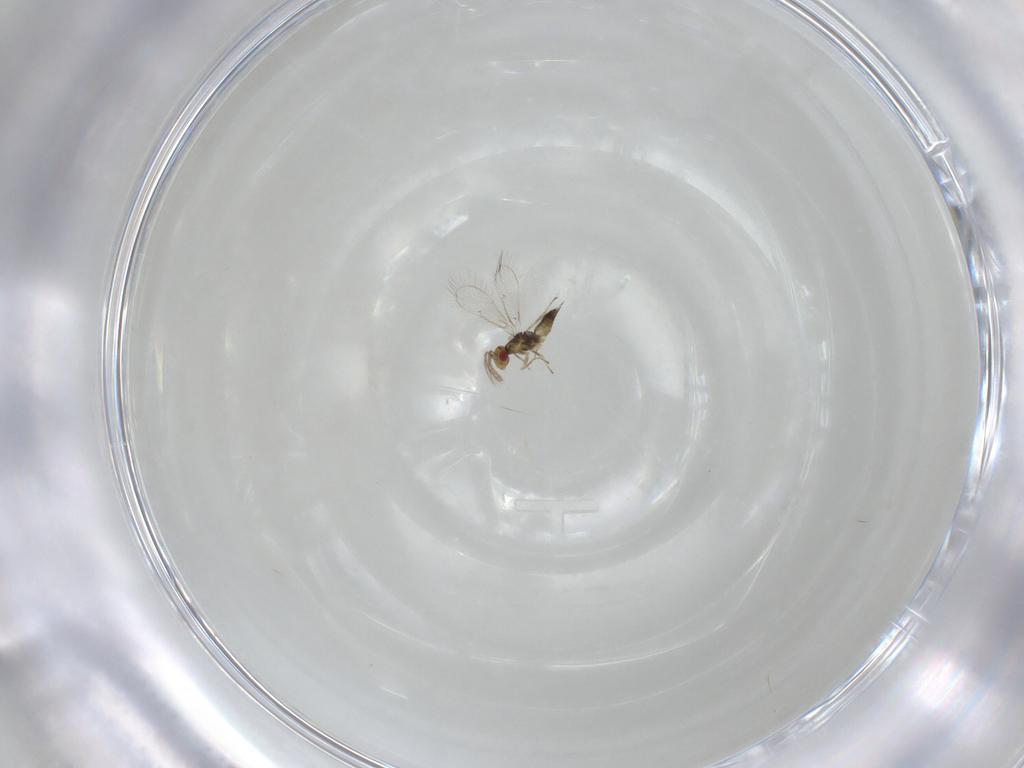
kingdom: Animalia
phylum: Arthropoda
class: Insecta
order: Hymenoptera
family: Eulophidae
